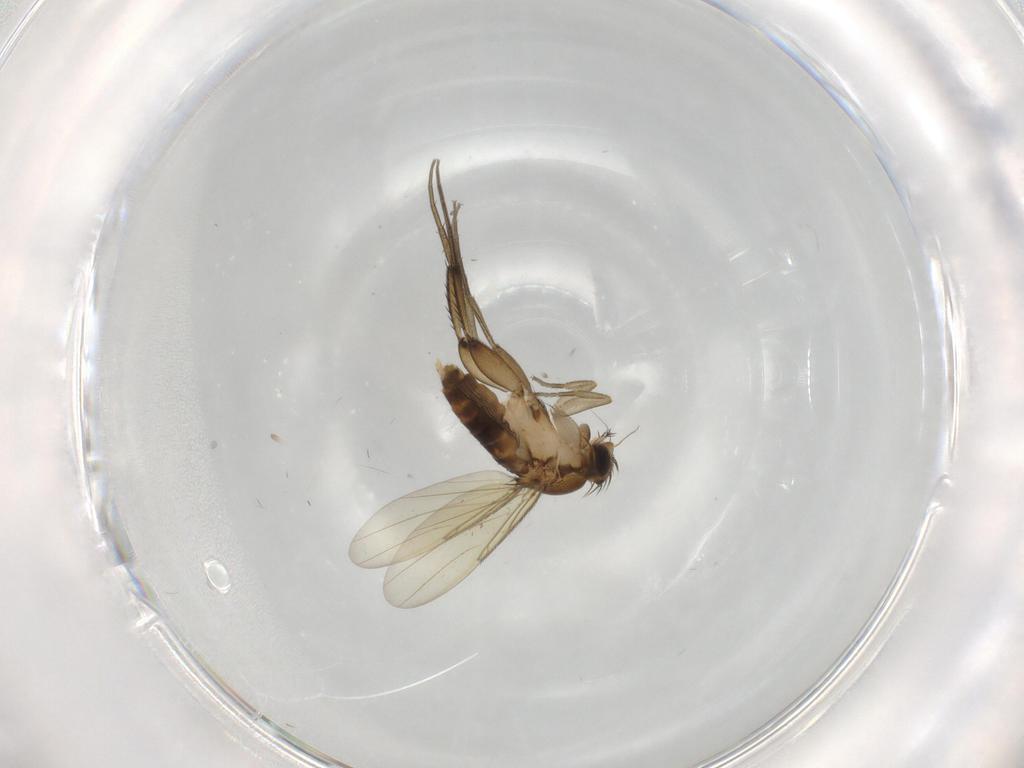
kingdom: Animalia
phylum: Arthropoda
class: Insecta
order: Diptera
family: Phoridae
